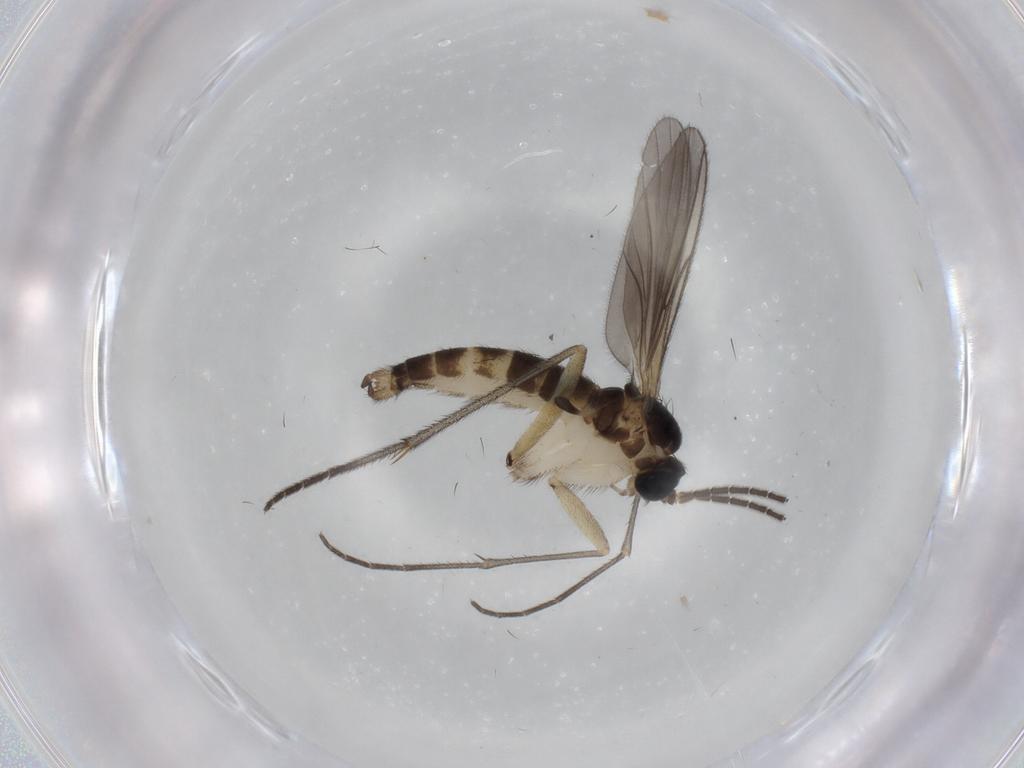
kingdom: Animalia
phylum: Arthropoda
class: Insecta
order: Diptera
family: Sciaridae
